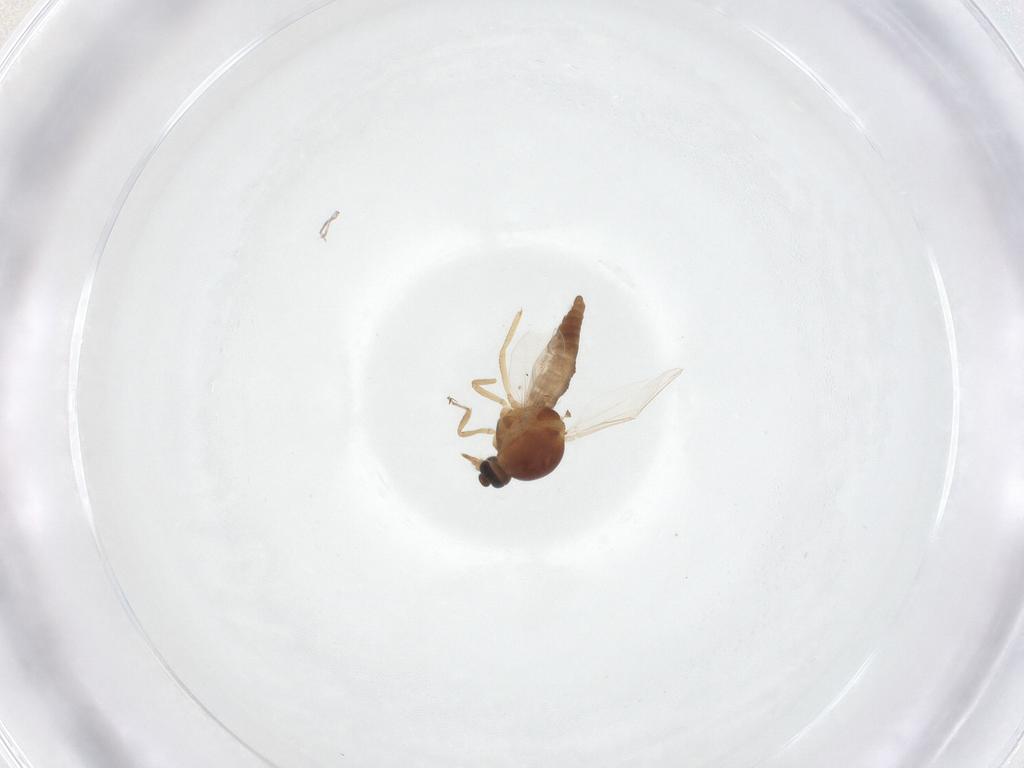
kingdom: Animalia
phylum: Arthropoda
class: Insecta
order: Diptera
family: Ceratopogonidae
